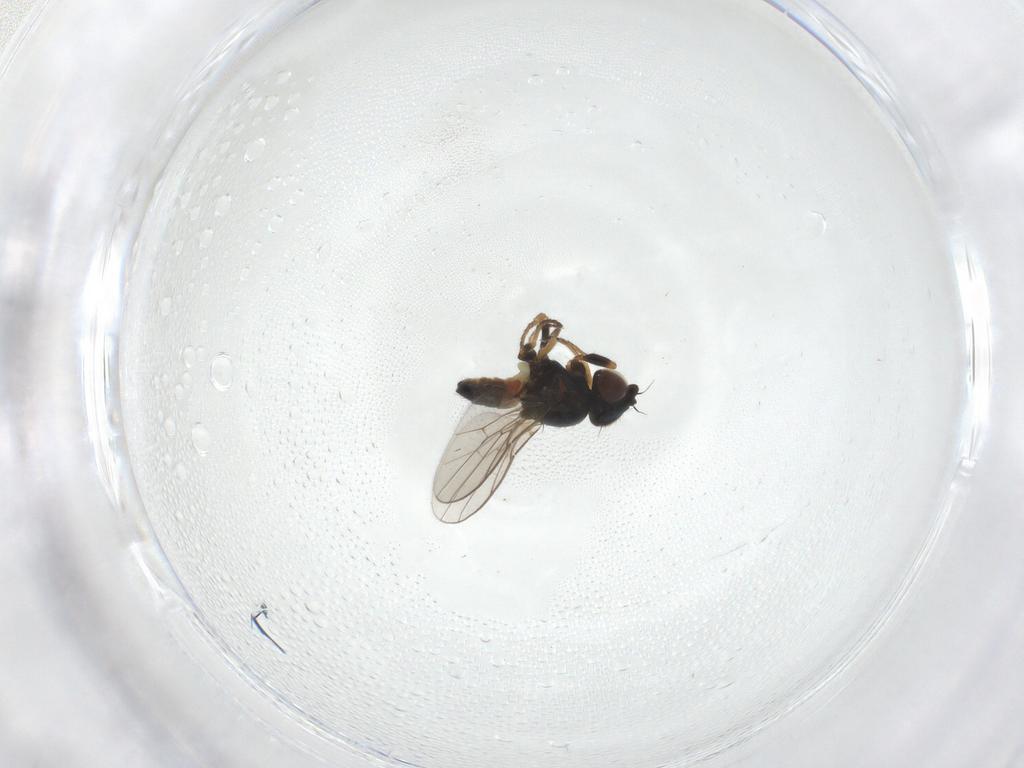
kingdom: Animalia
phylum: Arthropoda
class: Insecta
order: Diptera
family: Chloropidae
